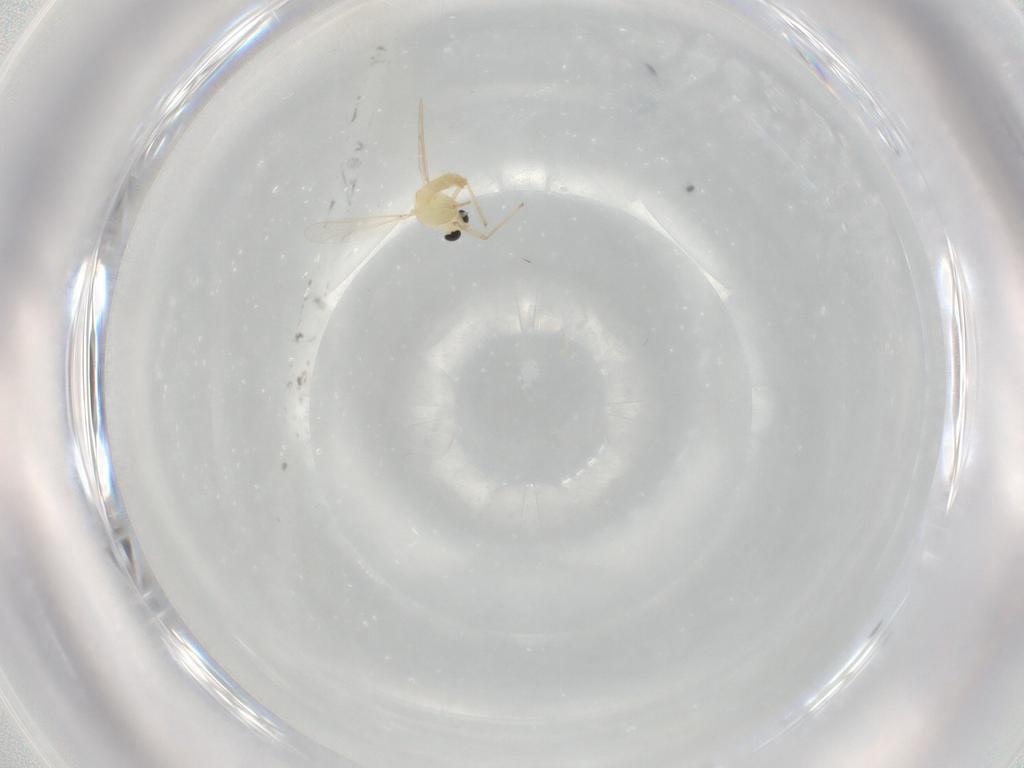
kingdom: Animalia
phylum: Arthropoda
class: Insecta
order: Diptera
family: Chironomidae
